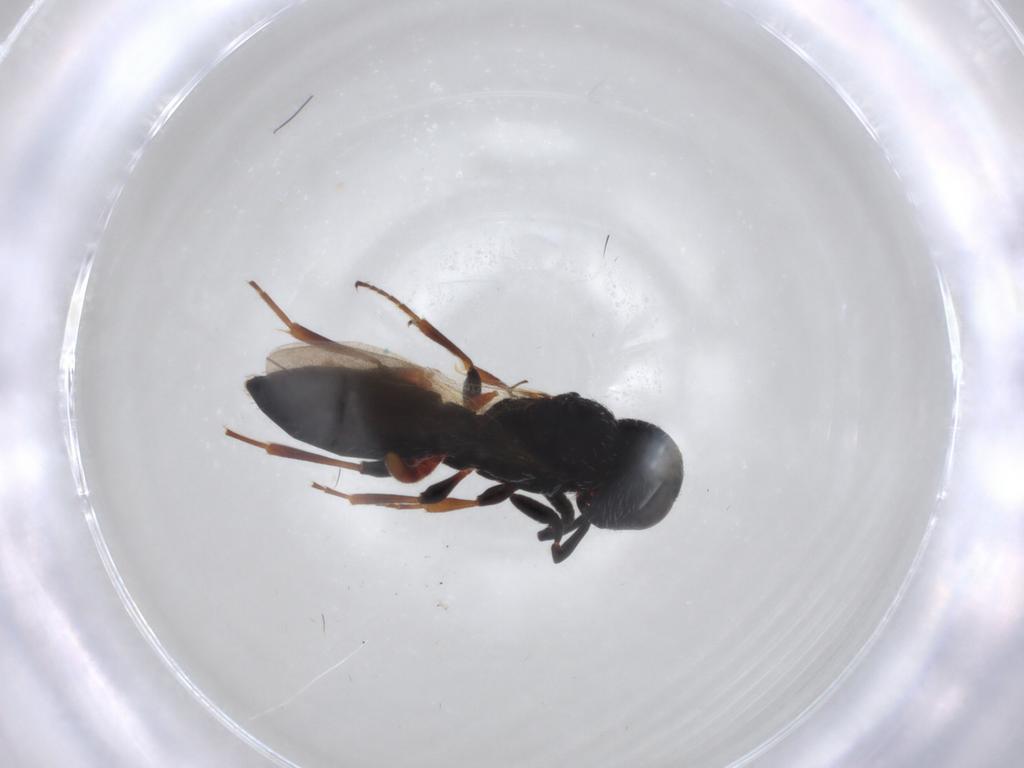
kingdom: Animalia
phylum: Arthropoda
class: Insecta
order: Hymenoptera
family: Scelionidae
